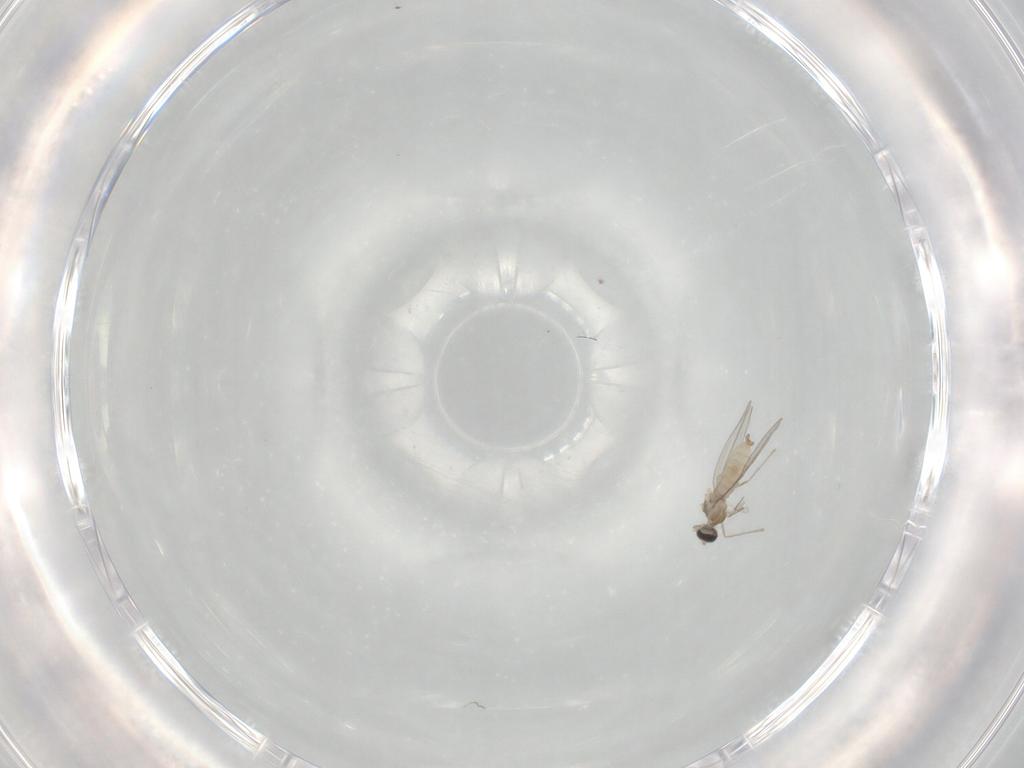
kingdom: Animalia
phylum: Arthropoda
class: Insecta
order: Diptera
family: Cecidomyiidae
